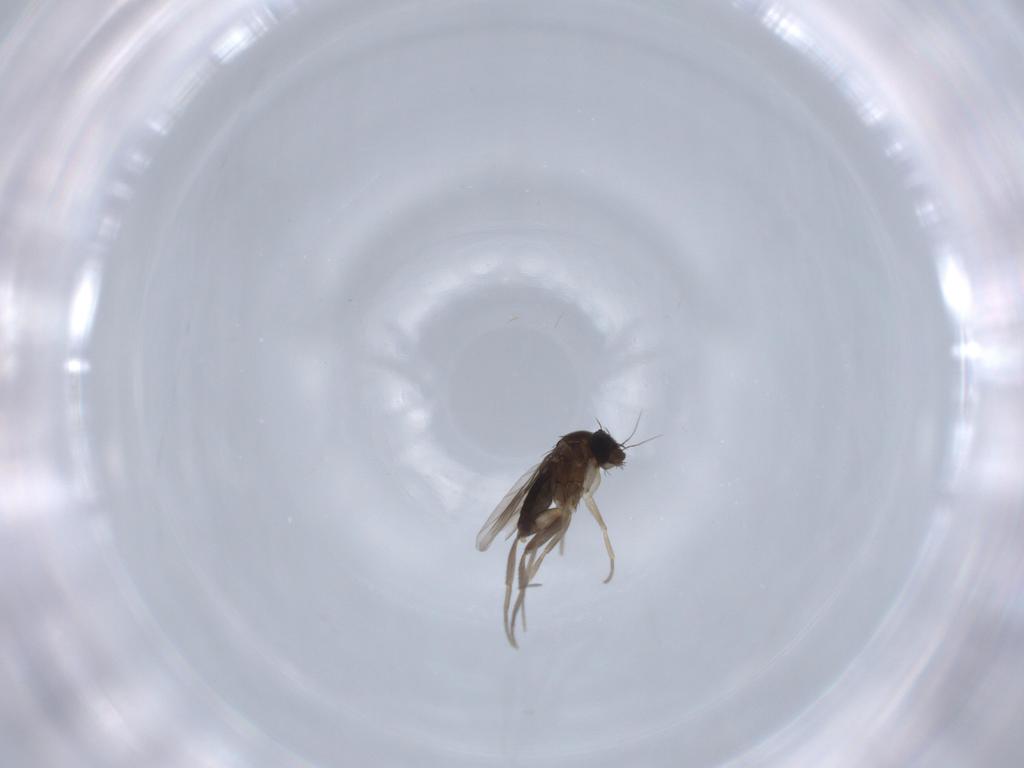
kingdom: Animalia
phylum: Arthropoda
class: Insecta
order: Diptera
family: Phoridae
